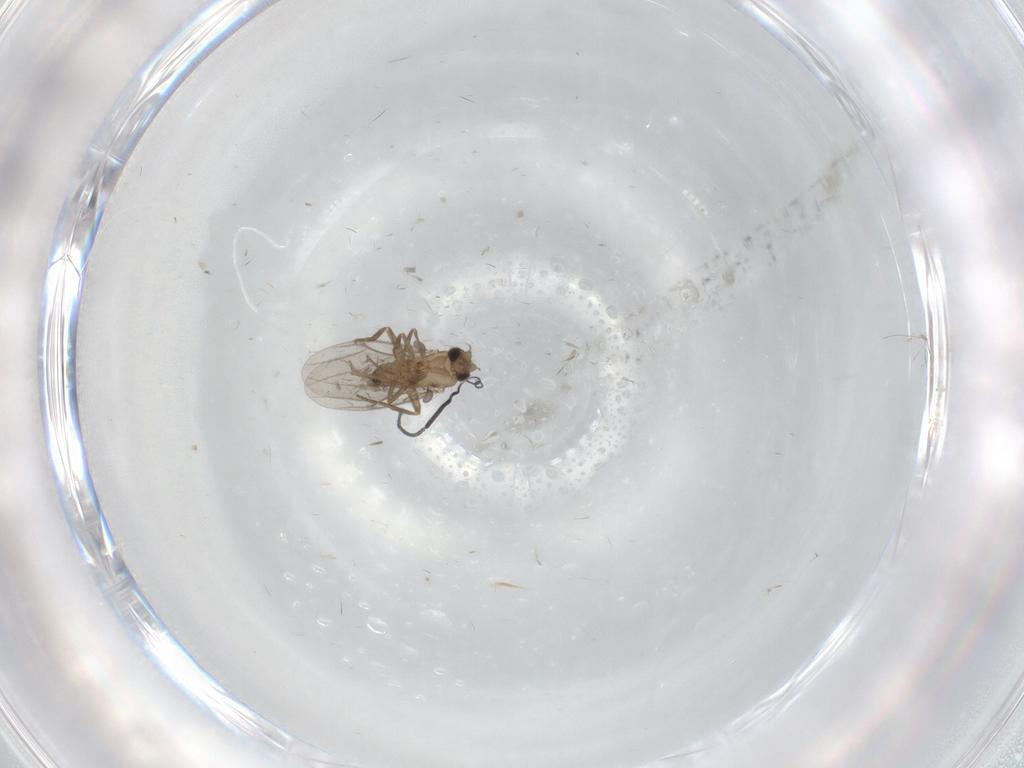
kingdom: Animalia
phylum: Arthropoda
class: Insecta
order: Diptera
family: Cecidomyiidae
